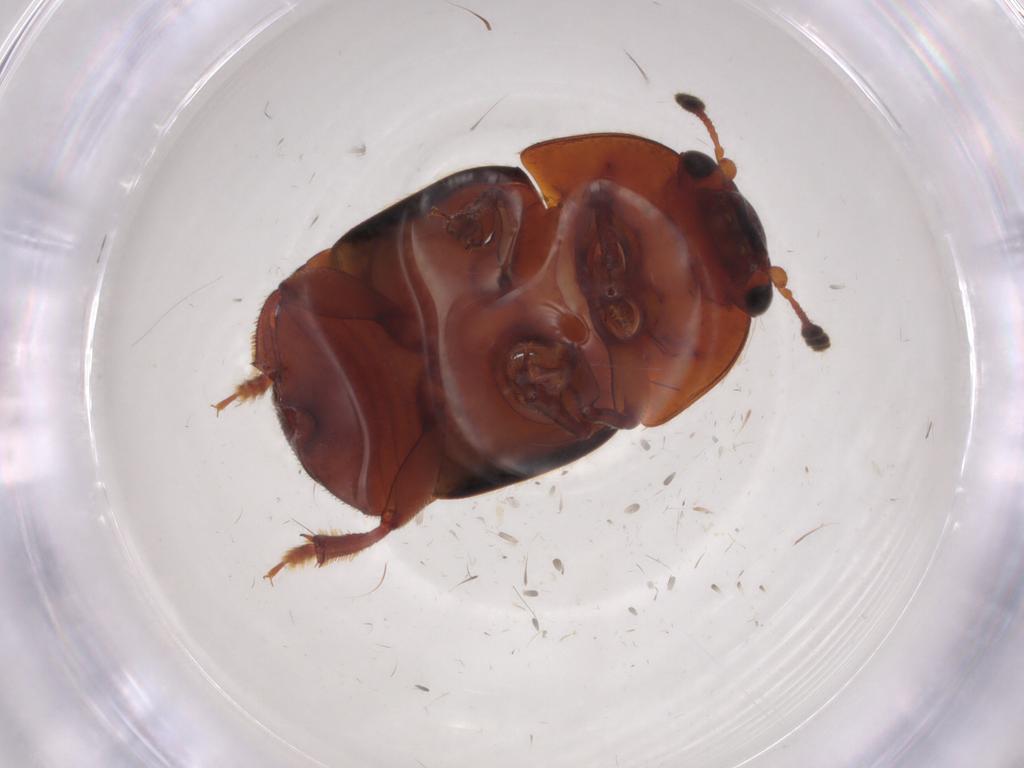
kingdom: Animalia
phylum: Arthropoda
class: Insecta
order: Coleoptera
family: Nitidulidae
